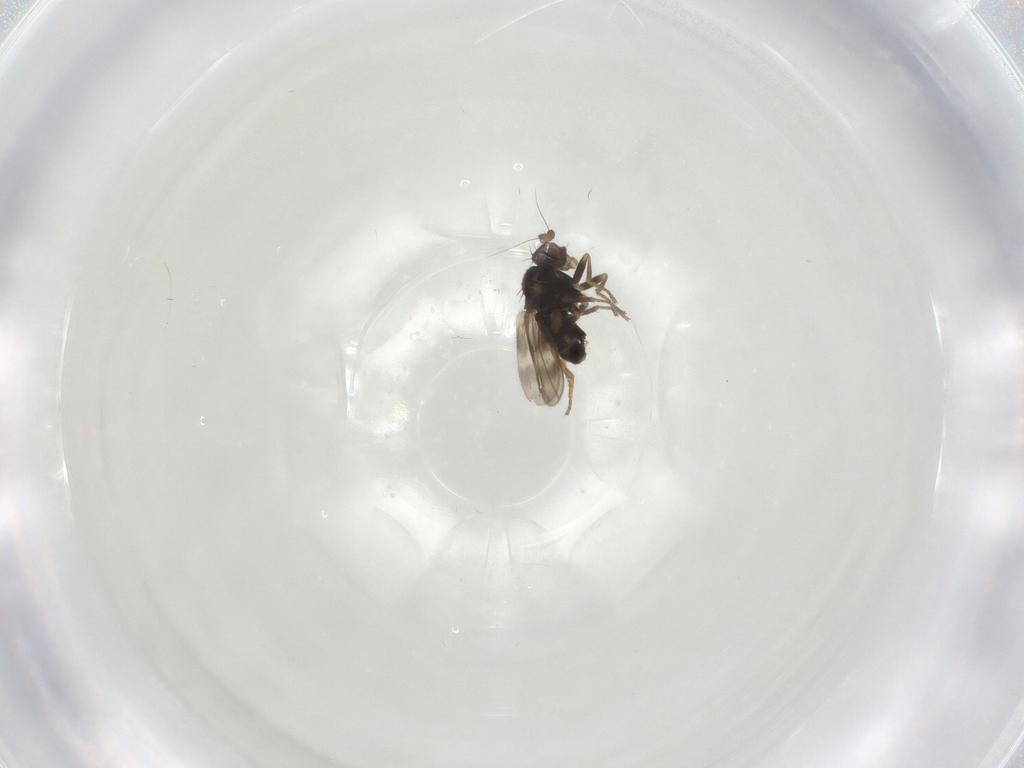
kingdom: Animalia
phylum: Arthropoda
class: Insecta
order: Diptera
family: Sphaeroceridae
